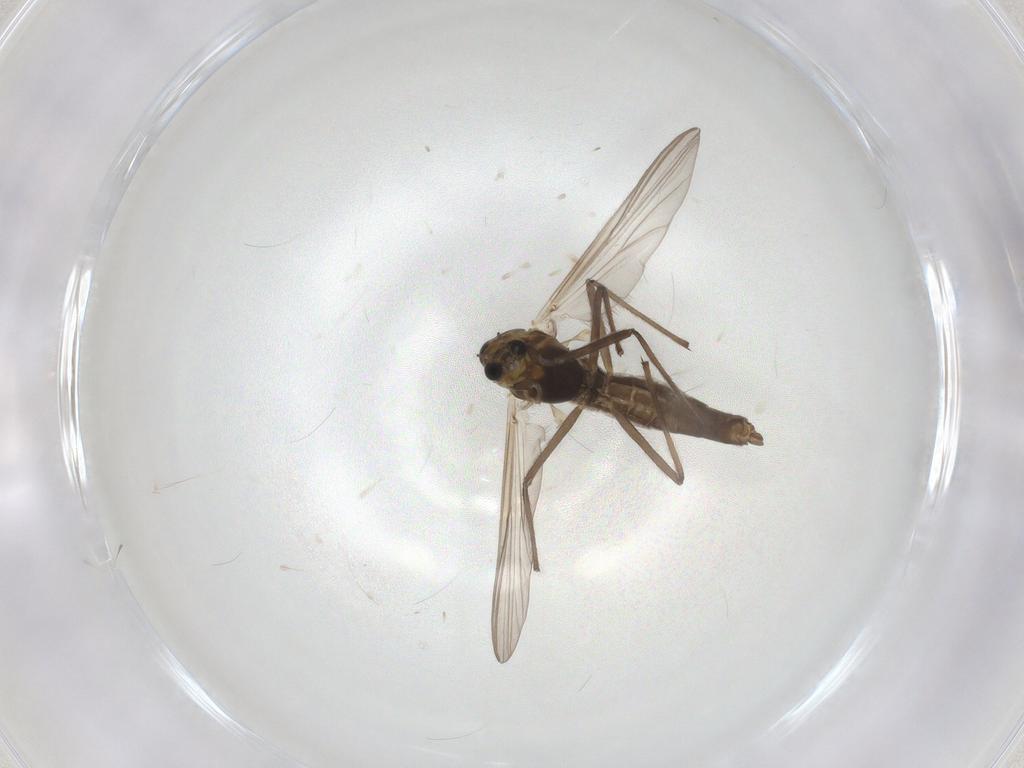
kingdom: Animalia
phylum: Arthropoda
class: Insecta
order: Diptera
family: Chironomidae
